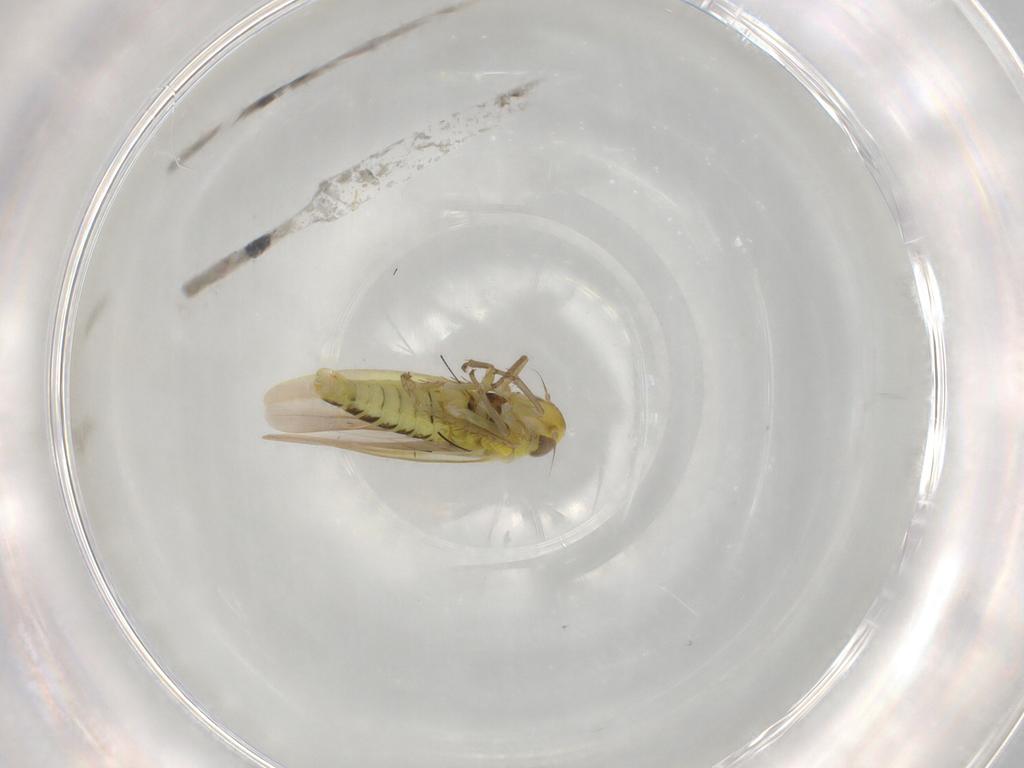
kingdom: Animalia
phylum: Arthropoda
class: Insecta
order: Hemiptera
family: Cicadellidae
